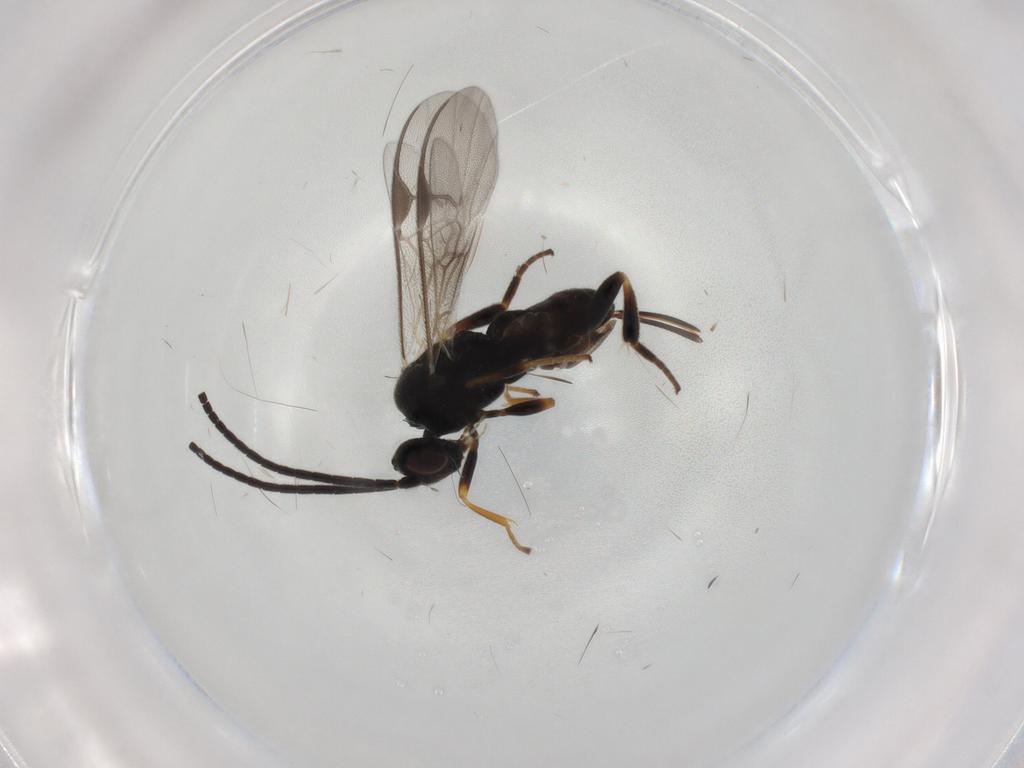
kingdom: Animalia
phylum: Arthropoda
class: Insecta
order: Hymenoptera
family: Braconidae
